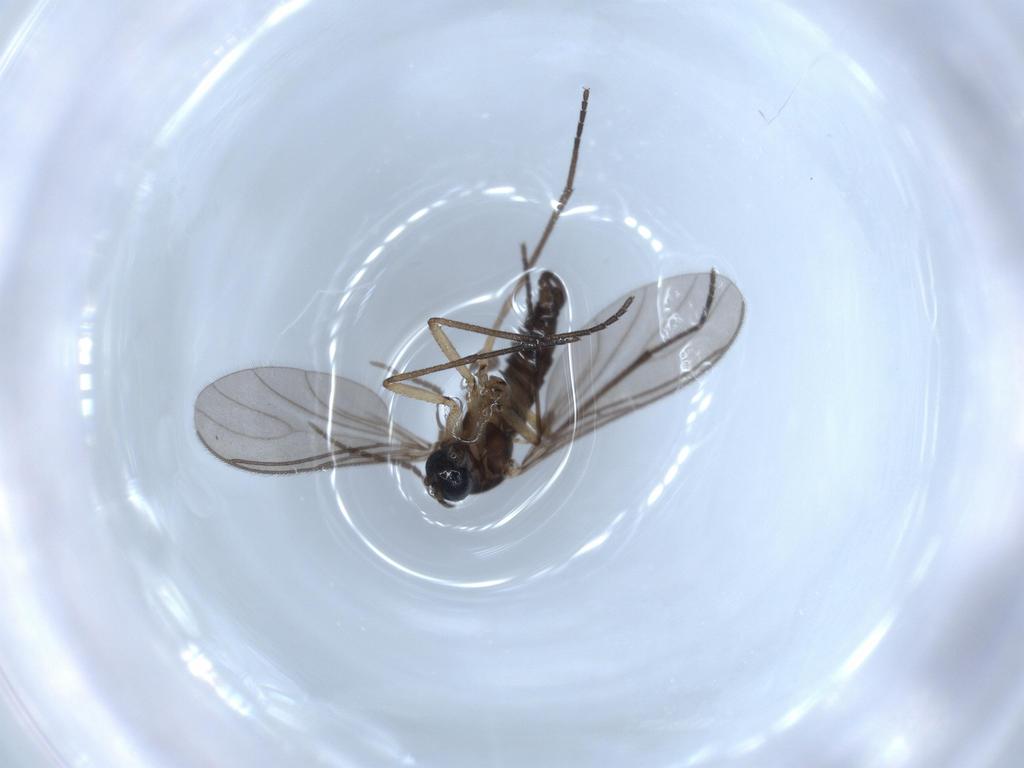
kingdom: Animalia
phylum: Arthropoda
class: Insecta
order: Diptera
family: Sciaridae
